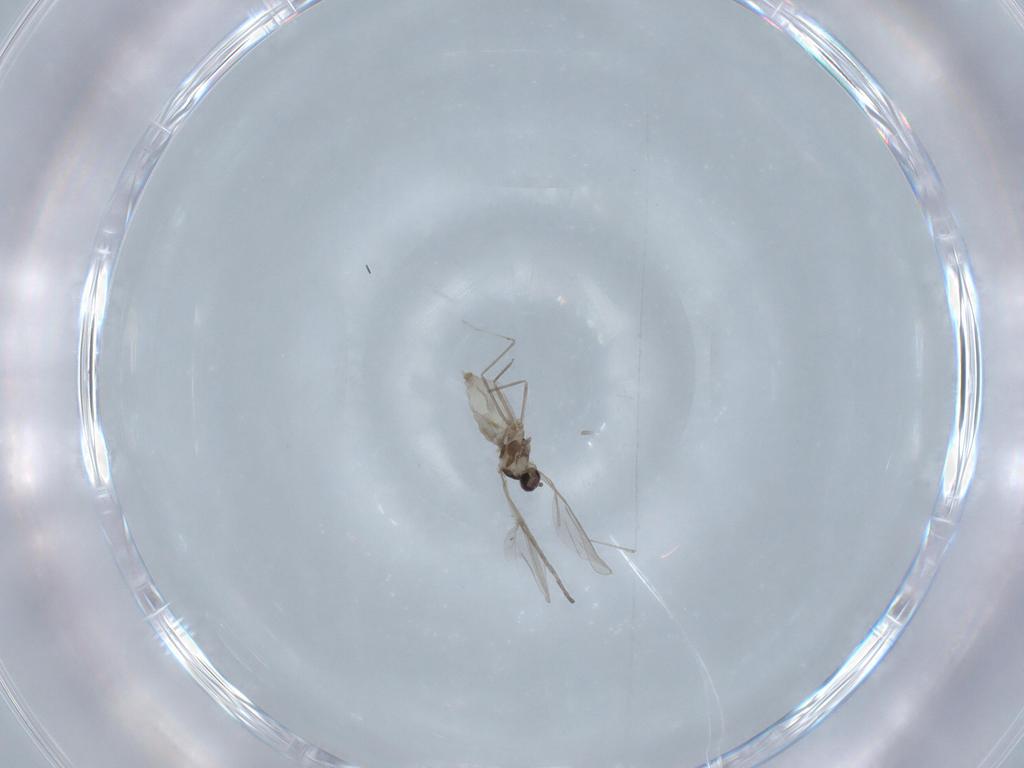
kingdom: Animalia
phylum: Arthropoda
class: Insecta
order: Diptera
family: Cecidomyiidae
